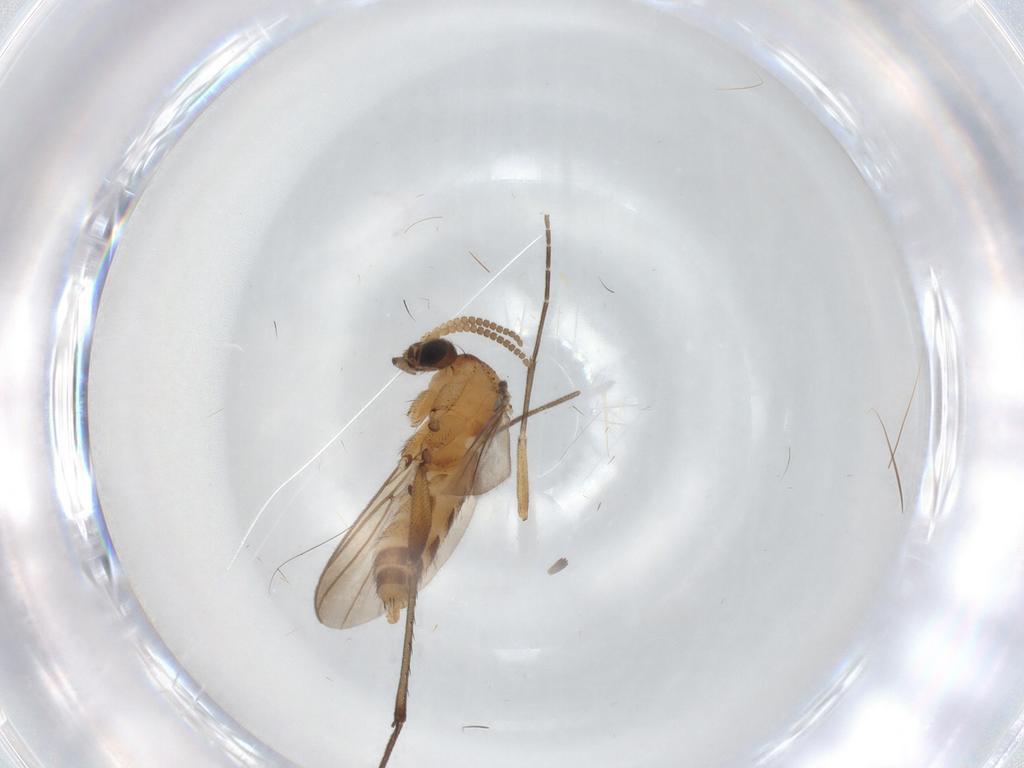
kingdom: Animalia
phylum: Arthropoda
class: Insecta
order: Diptera
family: Mycetophilidae
